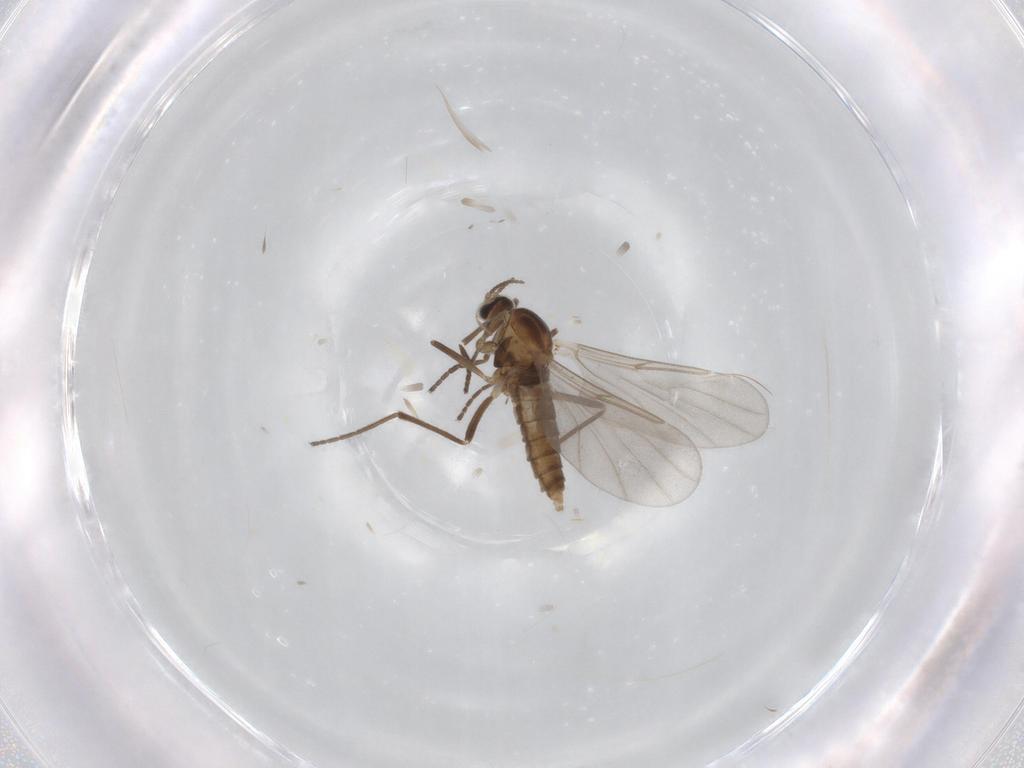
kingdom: Animalia
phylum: Arthropoda
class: Insecta
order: Diptera
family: Cecidomyiidae
